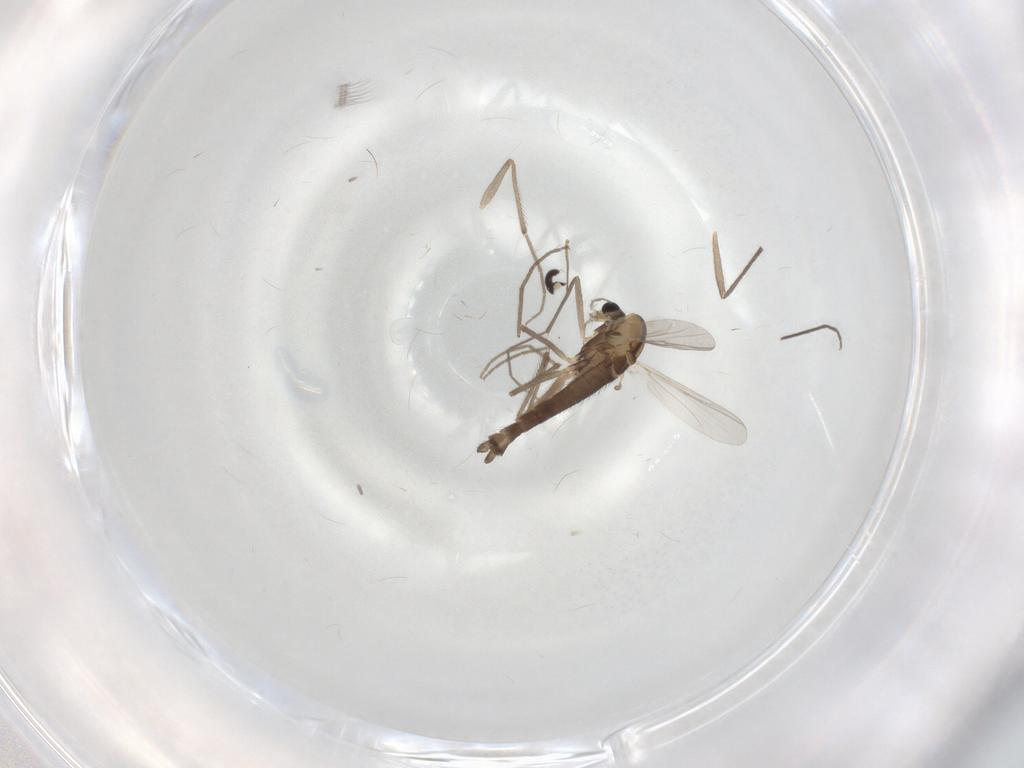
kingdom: Animalia
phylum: Arthropoda
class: Insecta
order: Diptera
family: Chironomidae
